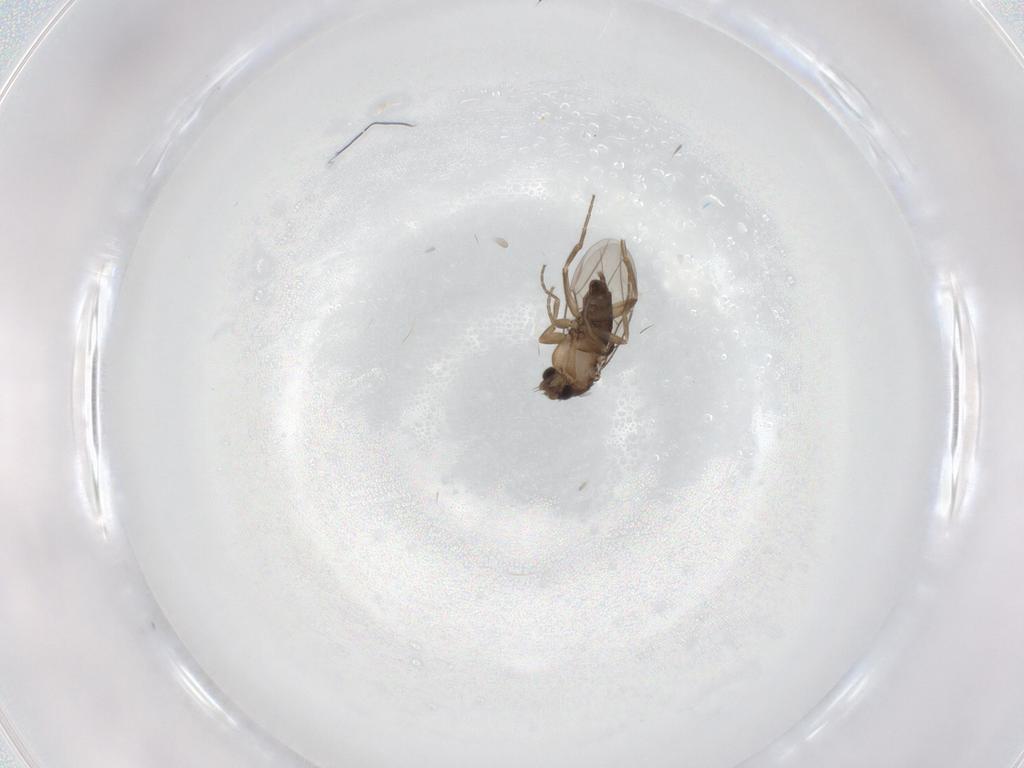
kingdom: Animalia
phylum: Arthropoda
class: Insecta
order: Diptera
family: Phoridae
